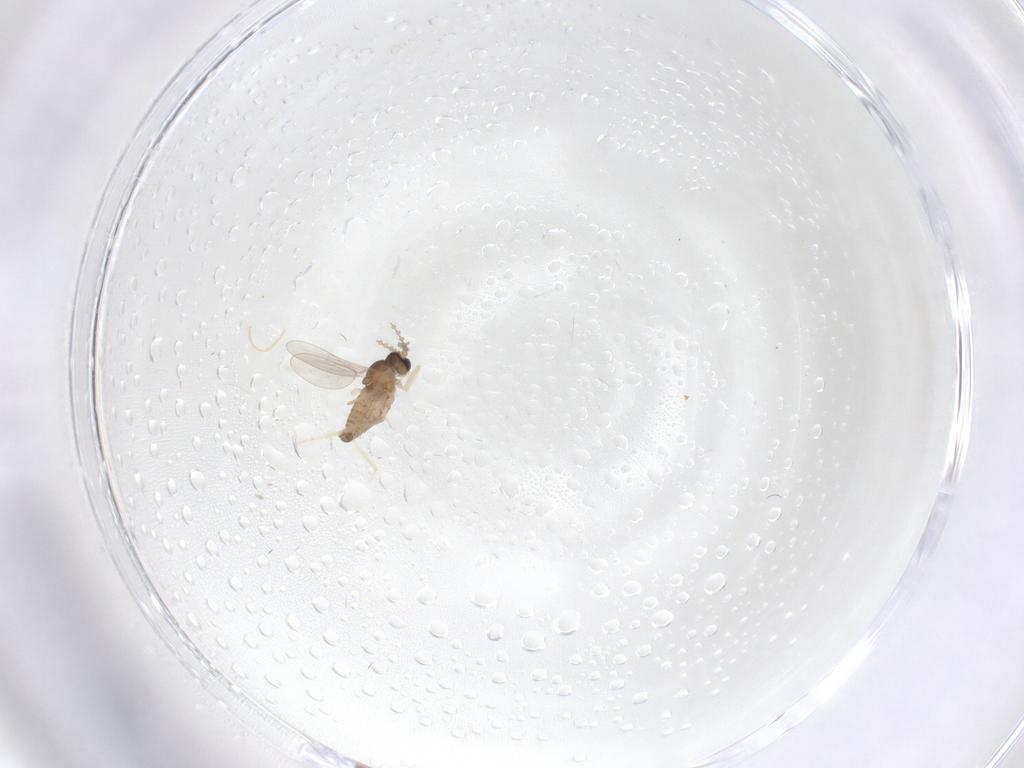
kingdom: Animalia
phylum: Arthropoda
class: Insecta
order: Diptera
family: Cecidomyiidae
